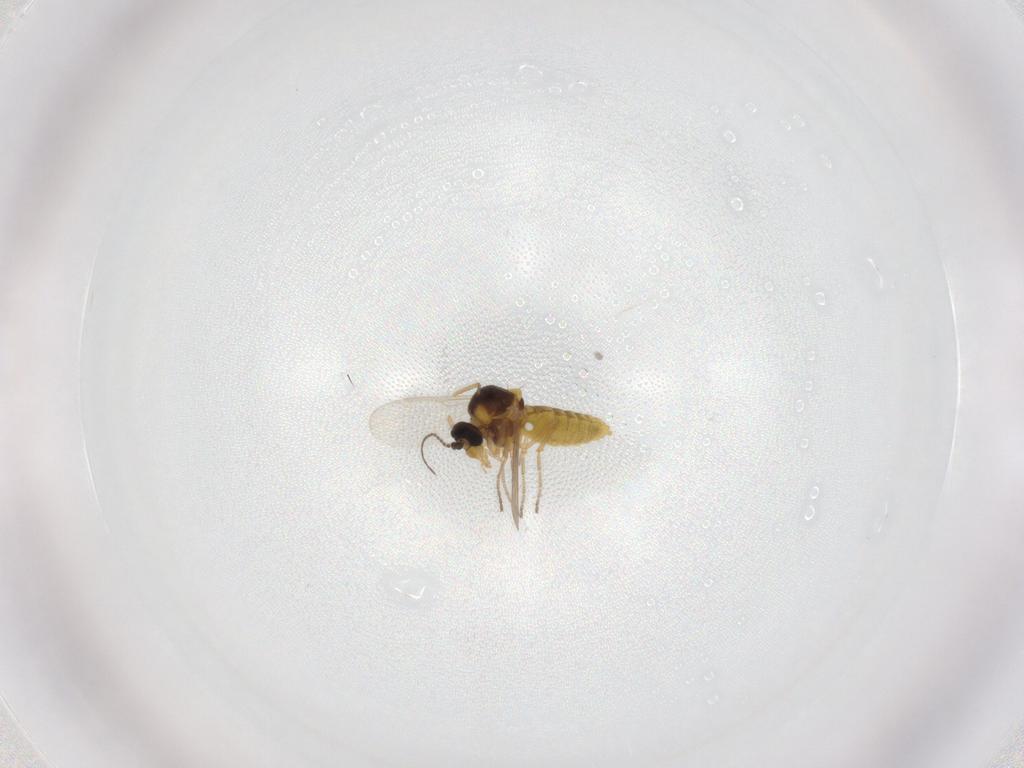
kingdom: Animalia
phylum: Arthropoda
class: Insecta
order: Diptera
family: Ceratopogonidae
